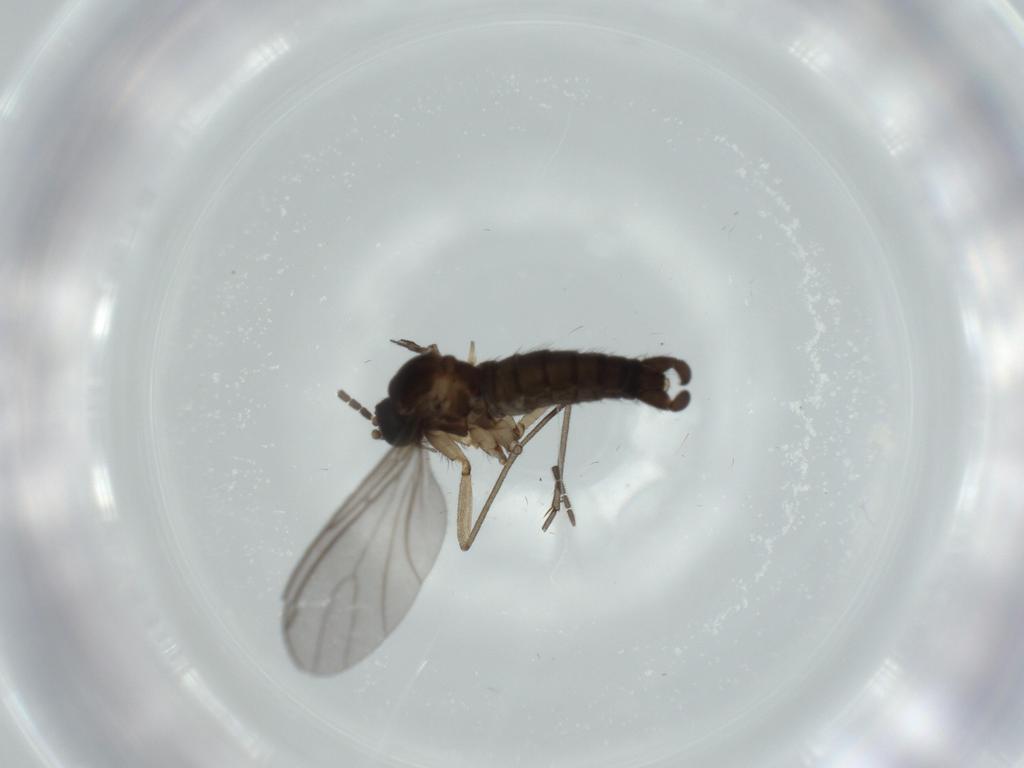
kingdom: Animalia
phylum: Arthropoda
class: Insecta
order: Diptera
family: Sciaridae
